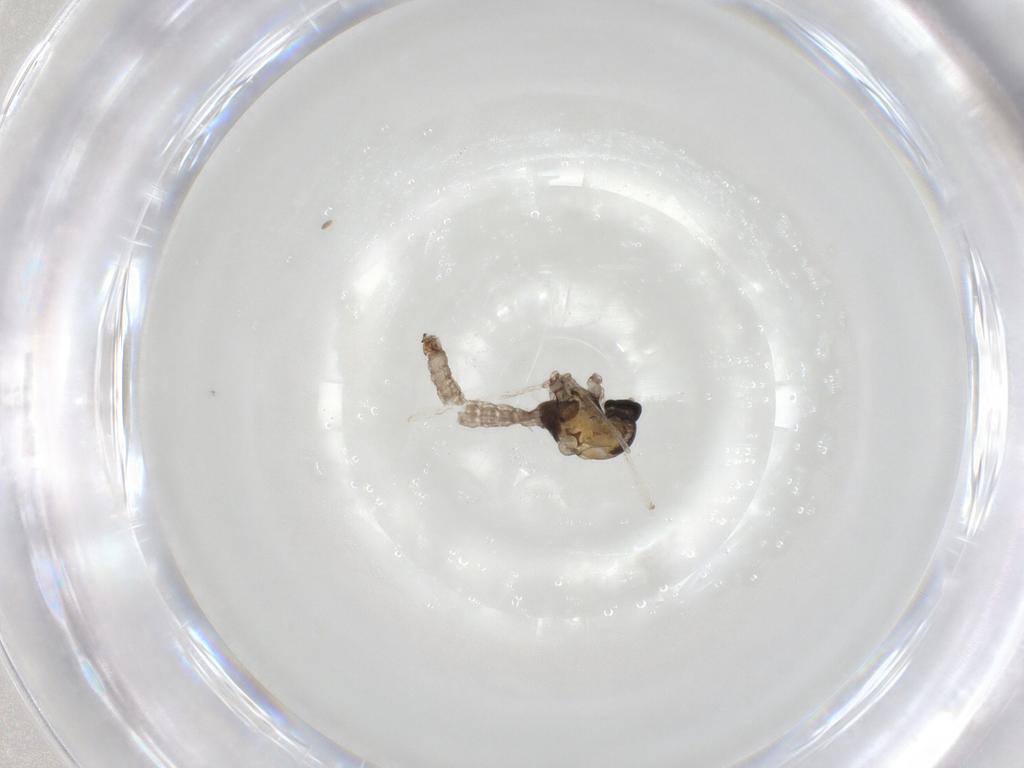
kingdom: Animalia
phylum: Arthropoda
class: Insecta
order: Diptera
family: Cecidomyiidae
